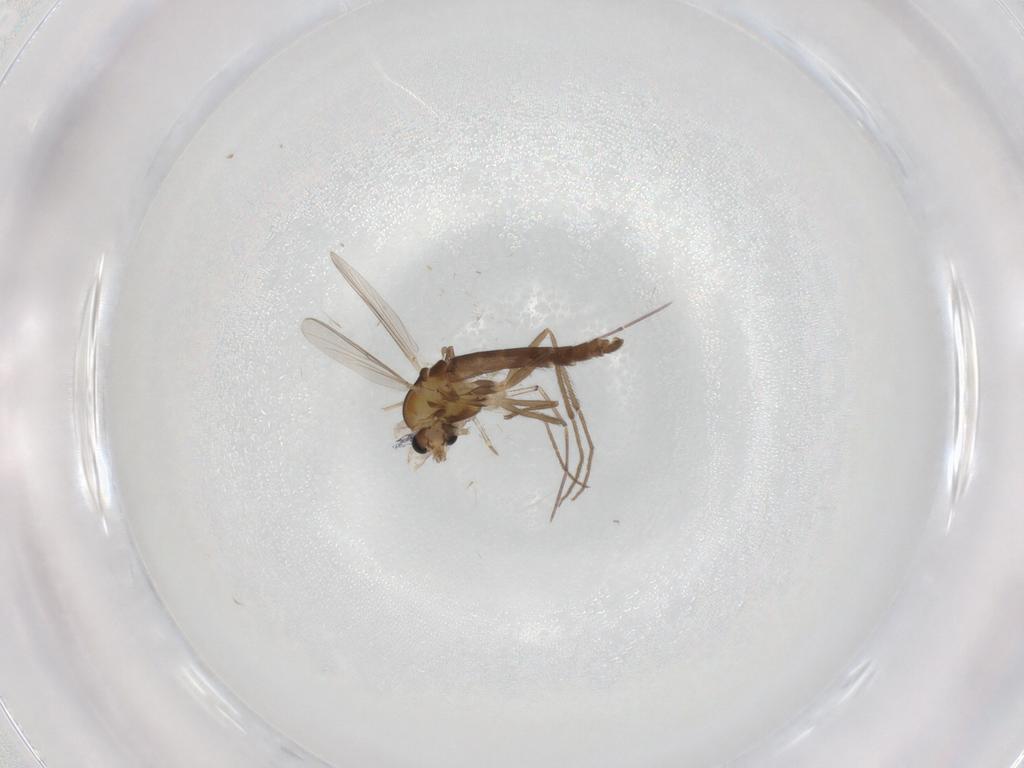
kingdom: Animalia
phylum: Arthropoda
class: Insecta
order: Diptera
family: Chironomidae
